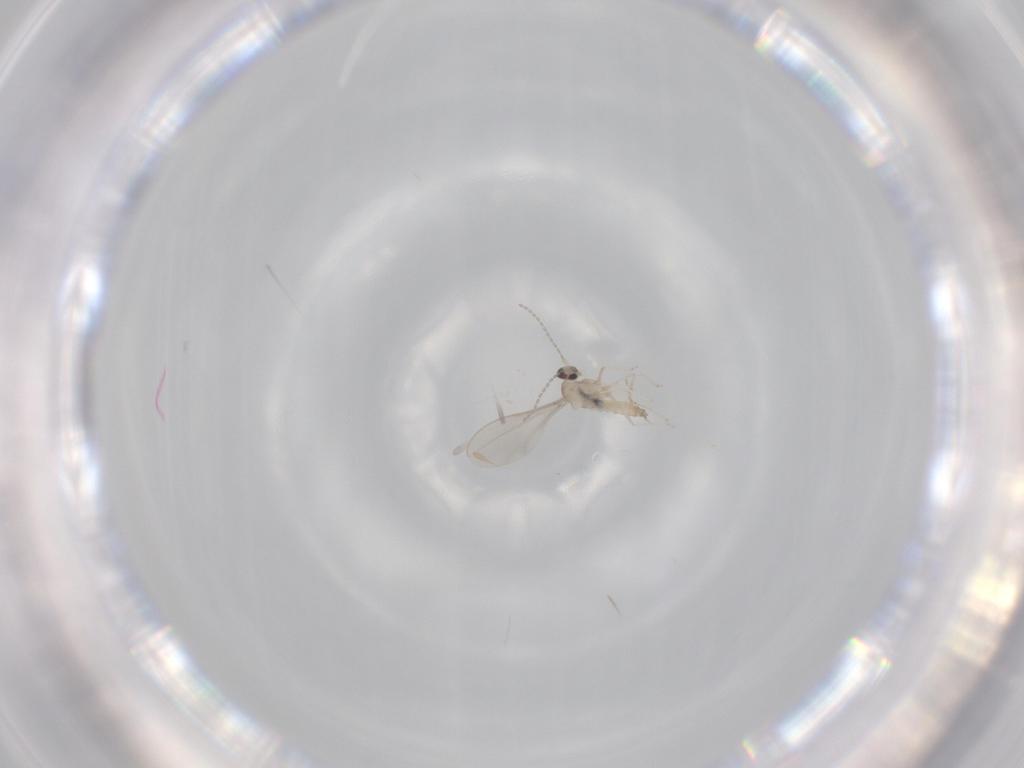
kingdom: Animalia
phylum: Arthropoda
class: Insecta
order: Diptera
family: Cecidomyiidae
